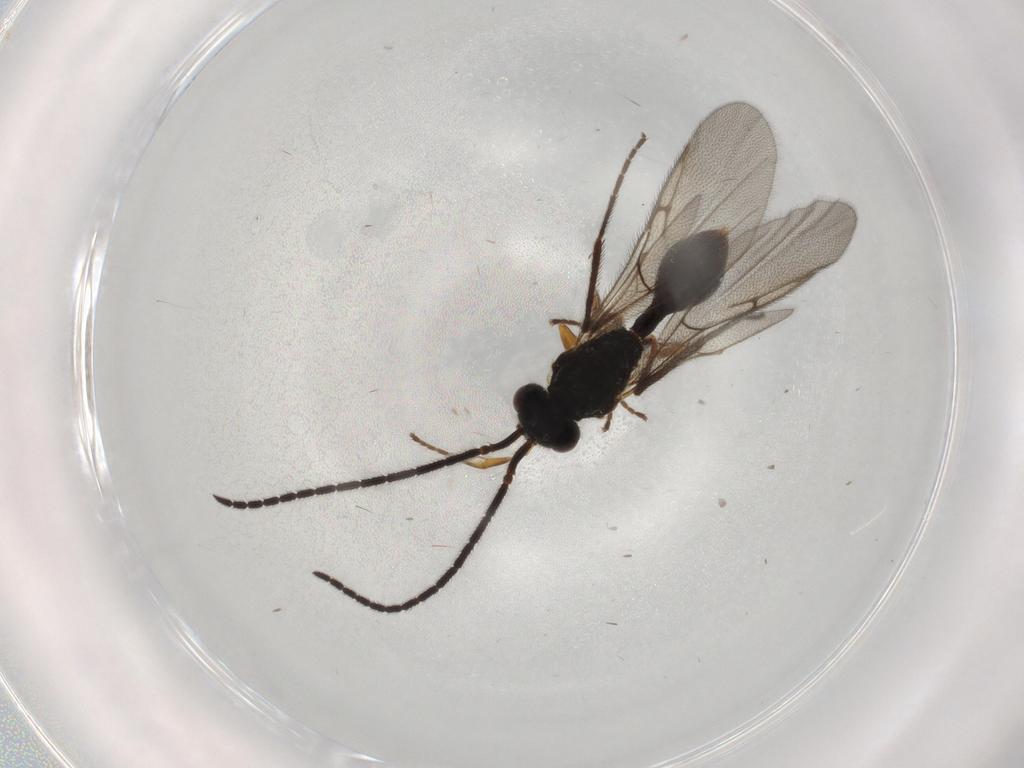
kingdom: Animalia
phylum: Arthropoda
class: Insecta
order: Hymenoptera
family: Diapriidae
